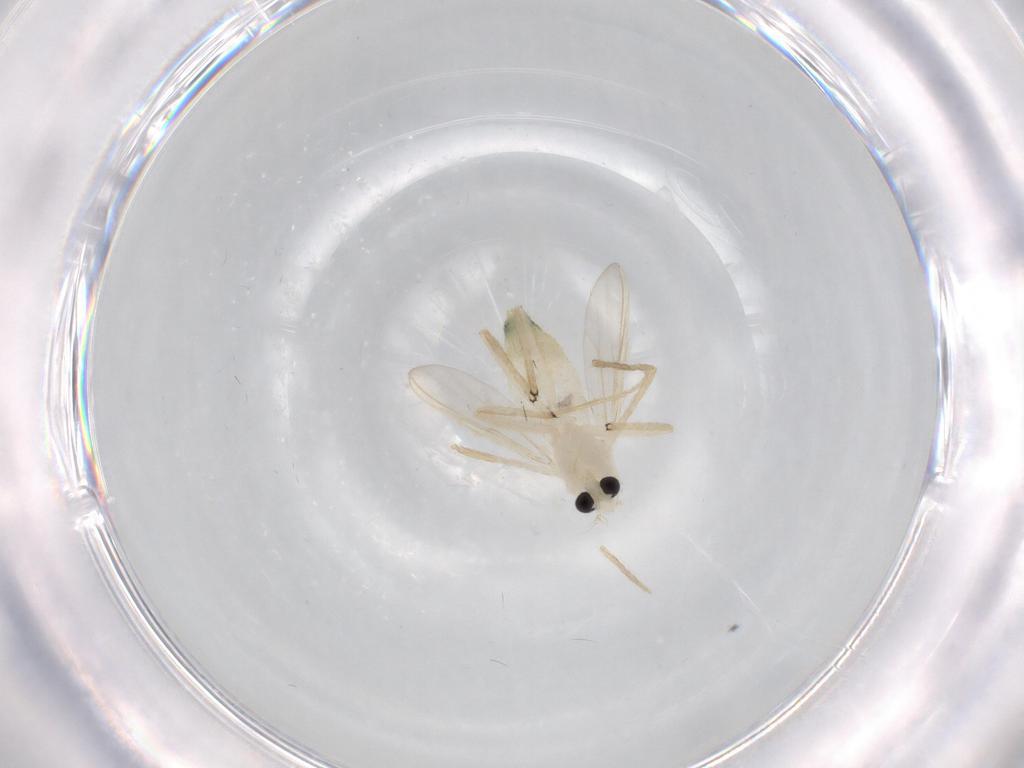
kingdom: Animalia
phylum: Arthropoda
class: Insecta
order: Diptera
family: Chironomidae
